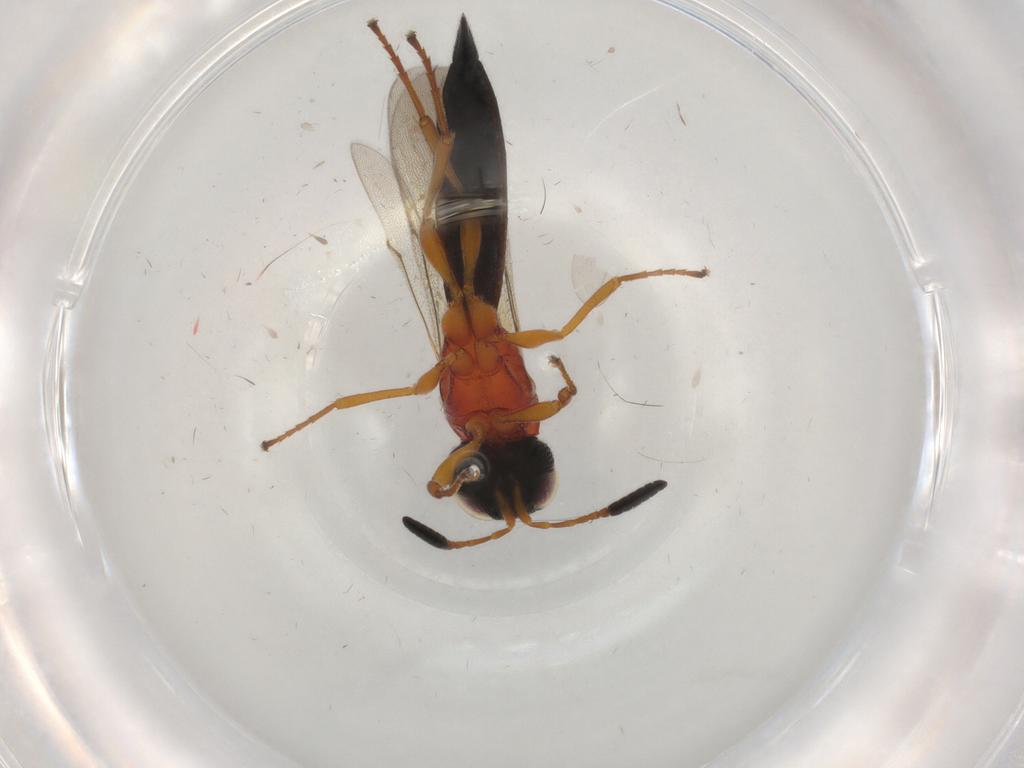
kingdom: Animalia
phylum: Arthropoda
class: Insecta
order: Hymenoptera
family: Scelionidae
